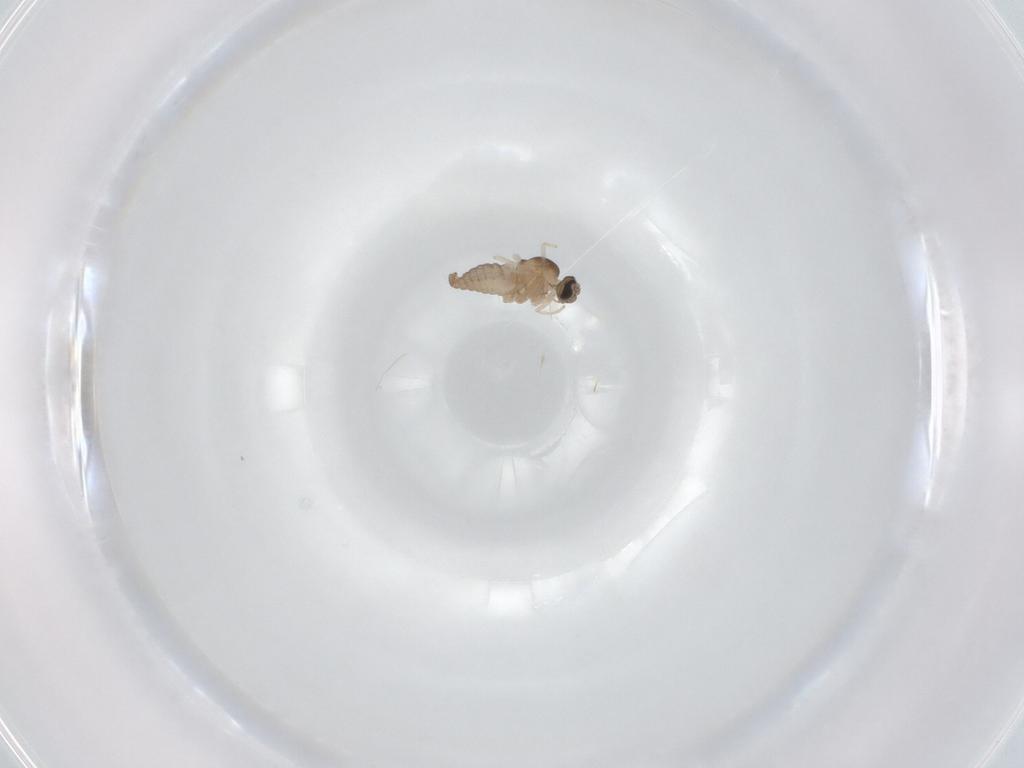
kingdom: Animalia
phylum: Arthropoda
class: Insecta
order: Diptera
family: Cecidomyiidae
